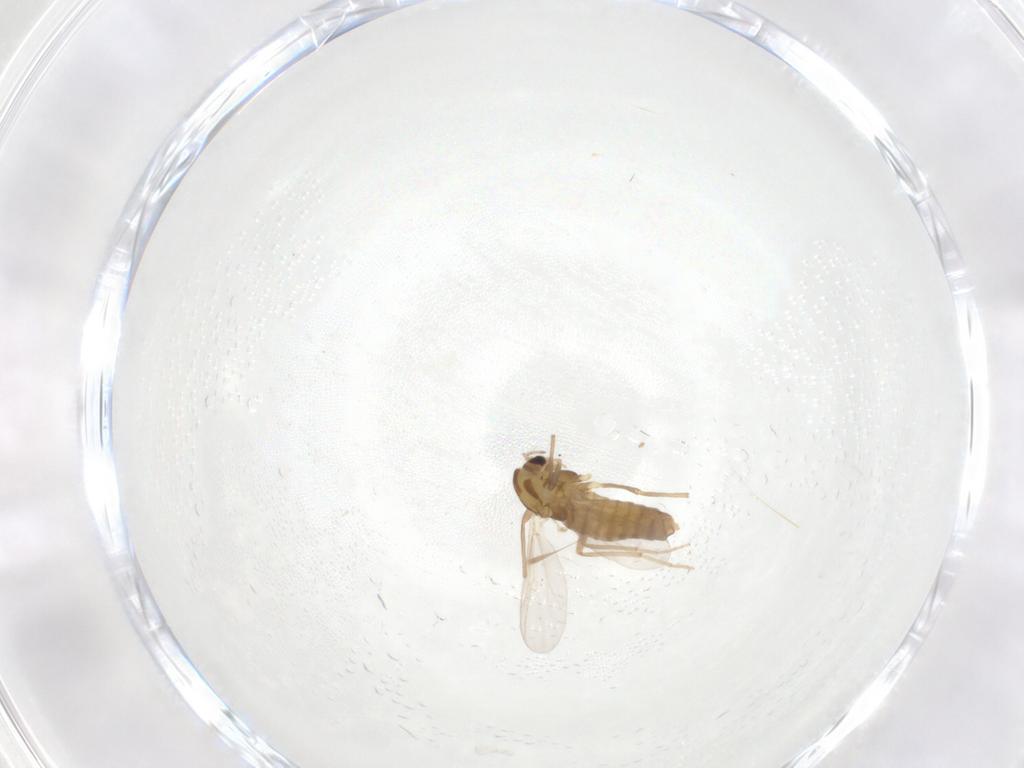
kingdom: Animalia
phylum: Arthropoda
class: Insecta
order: Diptera
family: Chironomidae
